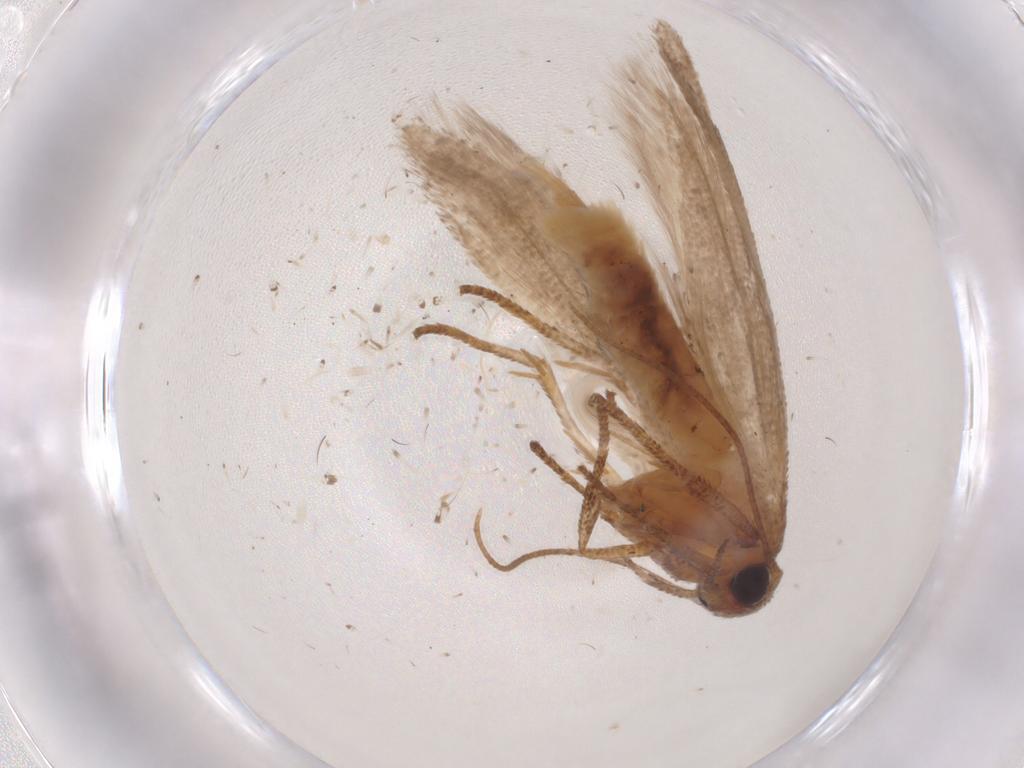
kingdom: Animalia
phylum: Arthropoda
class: Insecta
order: Lepidoptera
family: Blastobasidae
